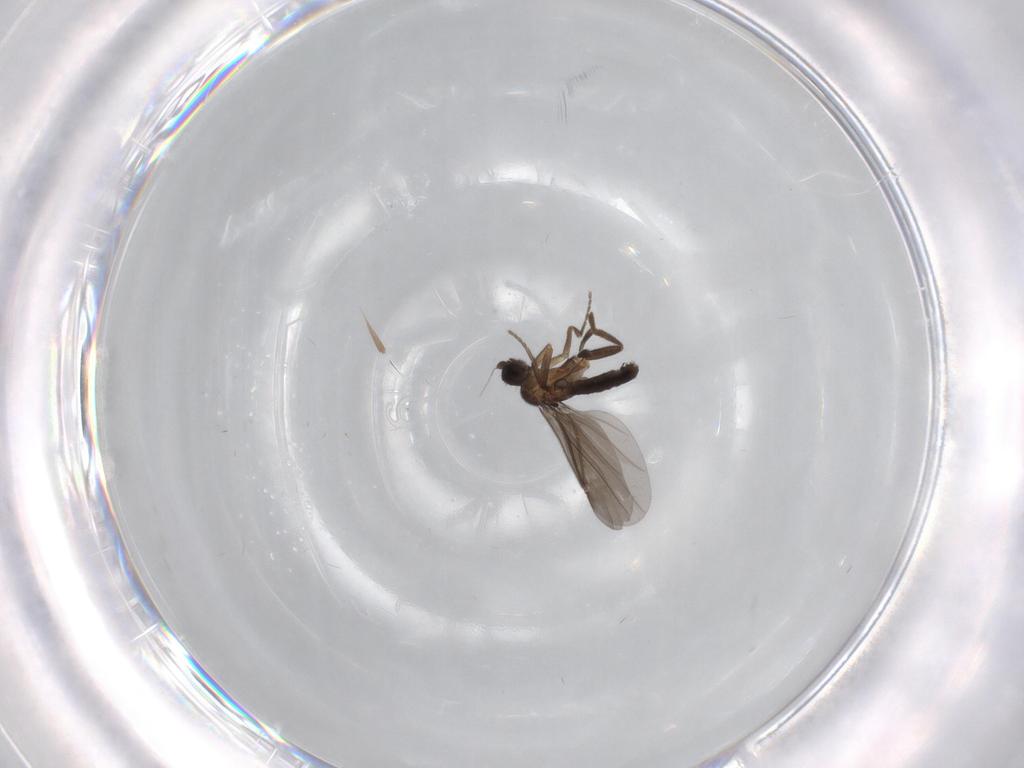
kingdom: Animalia
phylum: Arthropoda
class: Insecta
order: Diptera
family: Phoridae
